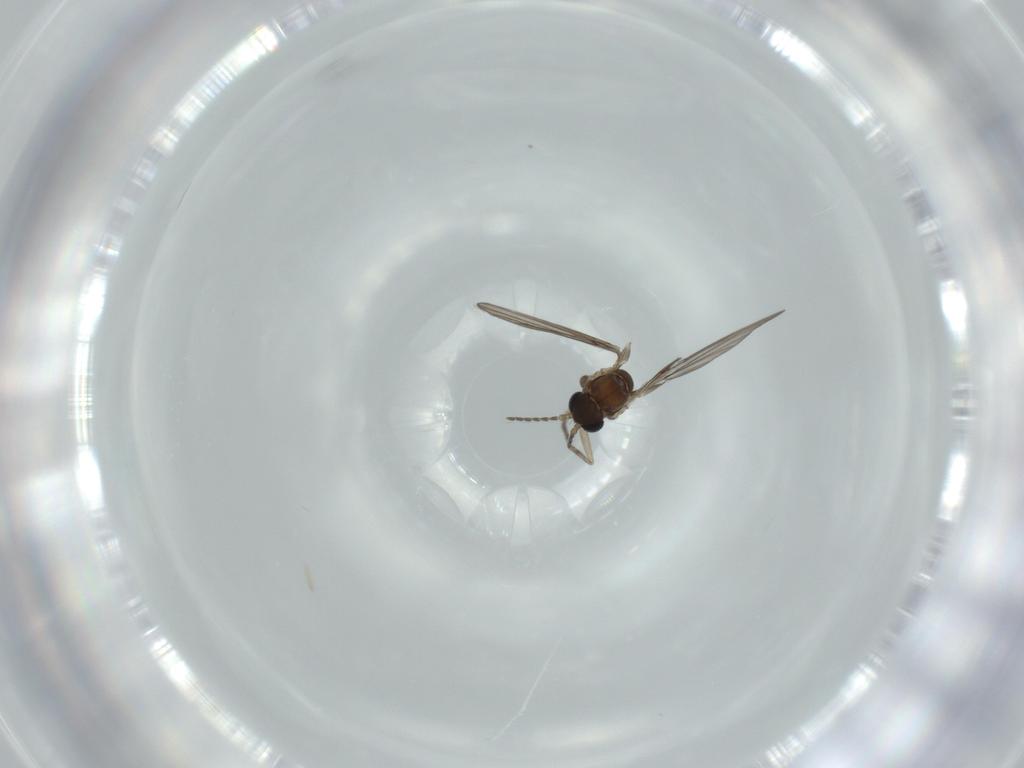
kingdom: Animalia
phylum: Arthropoda
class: Insecta
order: Diptera
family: Psychodidae
